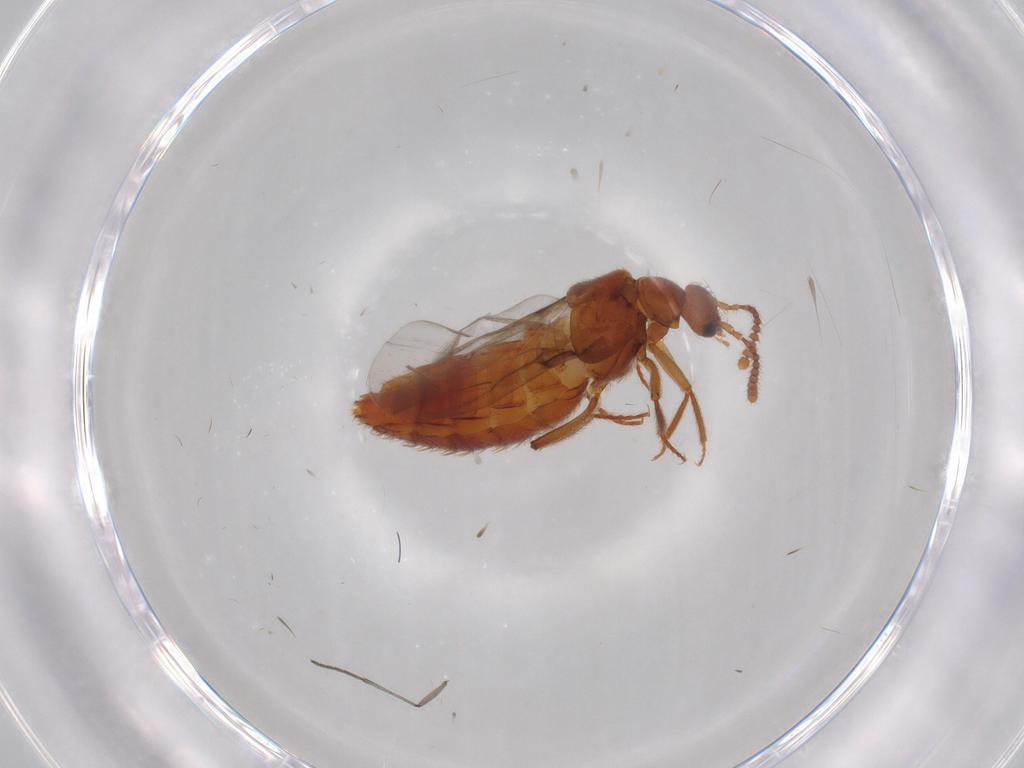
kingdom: Animalia
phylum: Arthropoda
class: Insecta
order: Coleoptera
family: Staphylinidae
